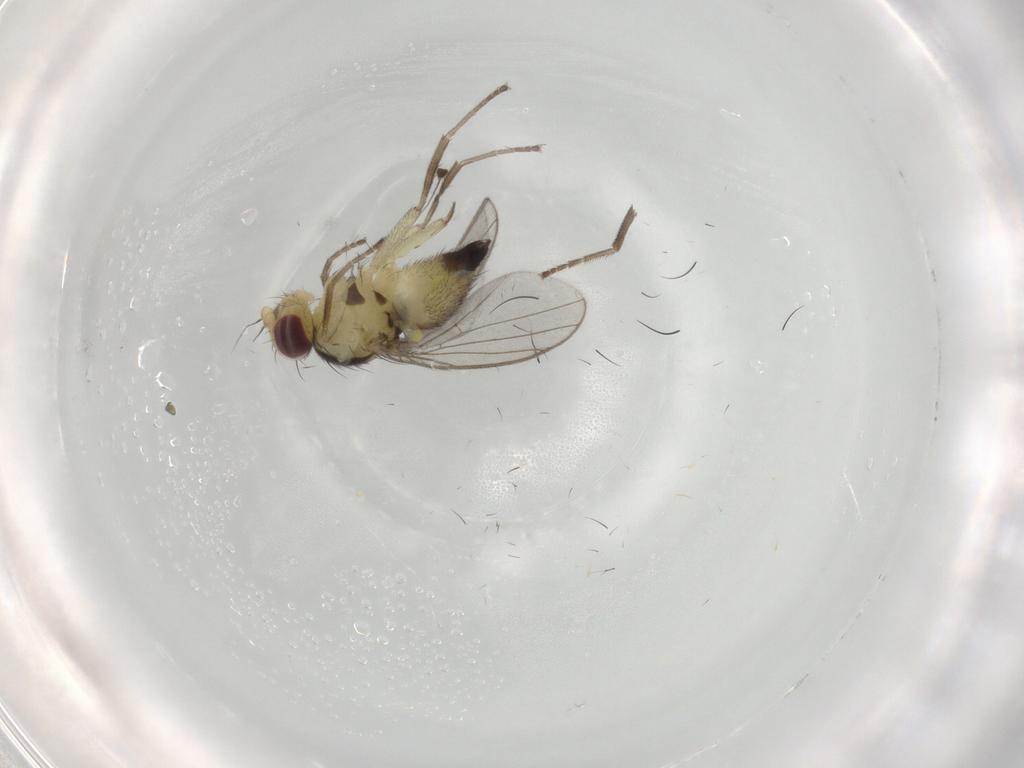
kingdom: Animalia
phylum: Arthropoda
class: Insecta
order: Diptera
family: Agromyzidae
